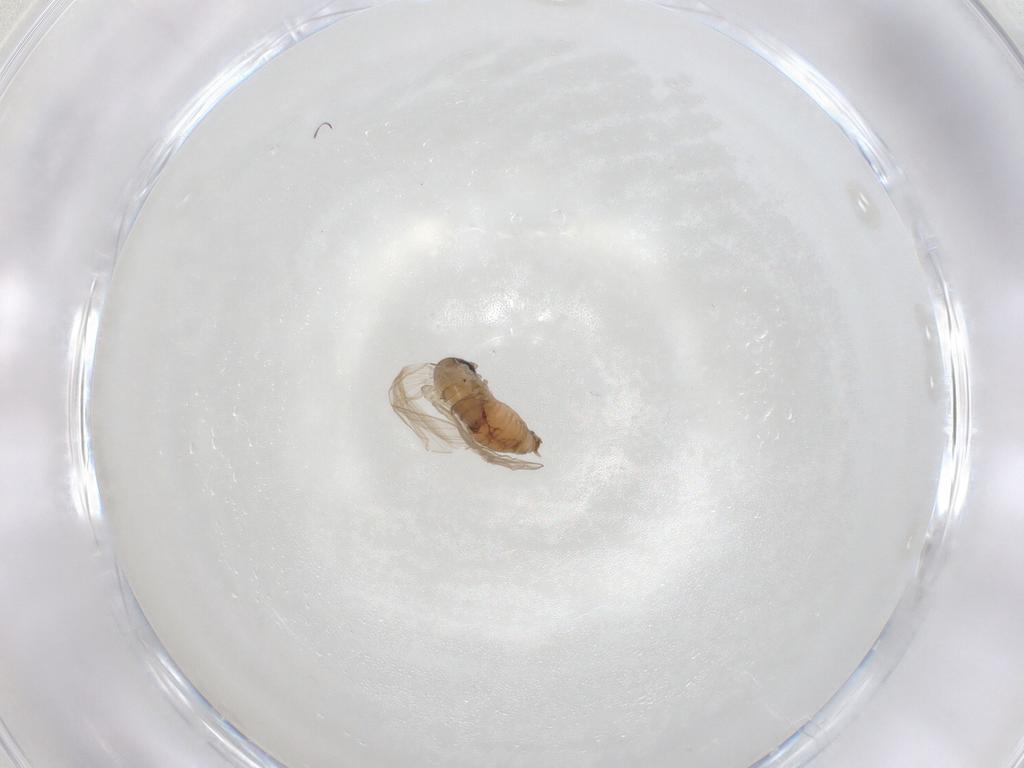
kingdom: Animalia
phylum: Arthropoda
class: Insecta
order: Diptera
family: Psychodidae
